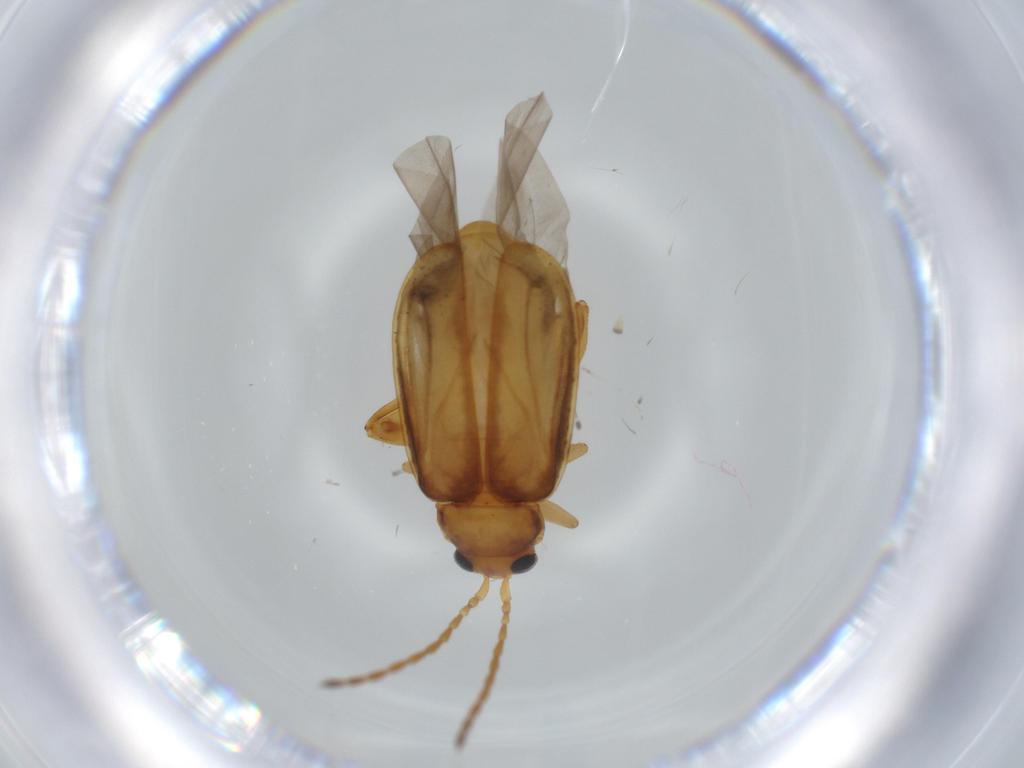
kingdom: Animalia
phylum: Arthropoda
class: Insecta
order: Coleoptera
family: Chrysomelidae
